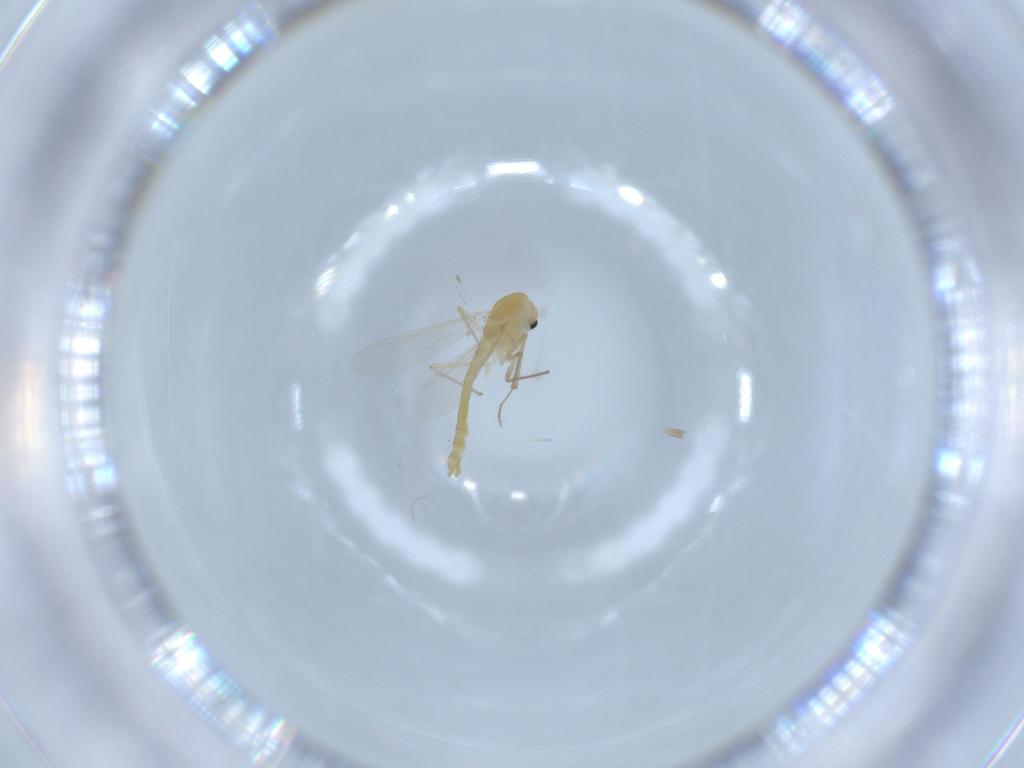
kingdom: Animalia
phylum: Arthropoda
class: Insecta
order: Diptera
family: Chironomidae
